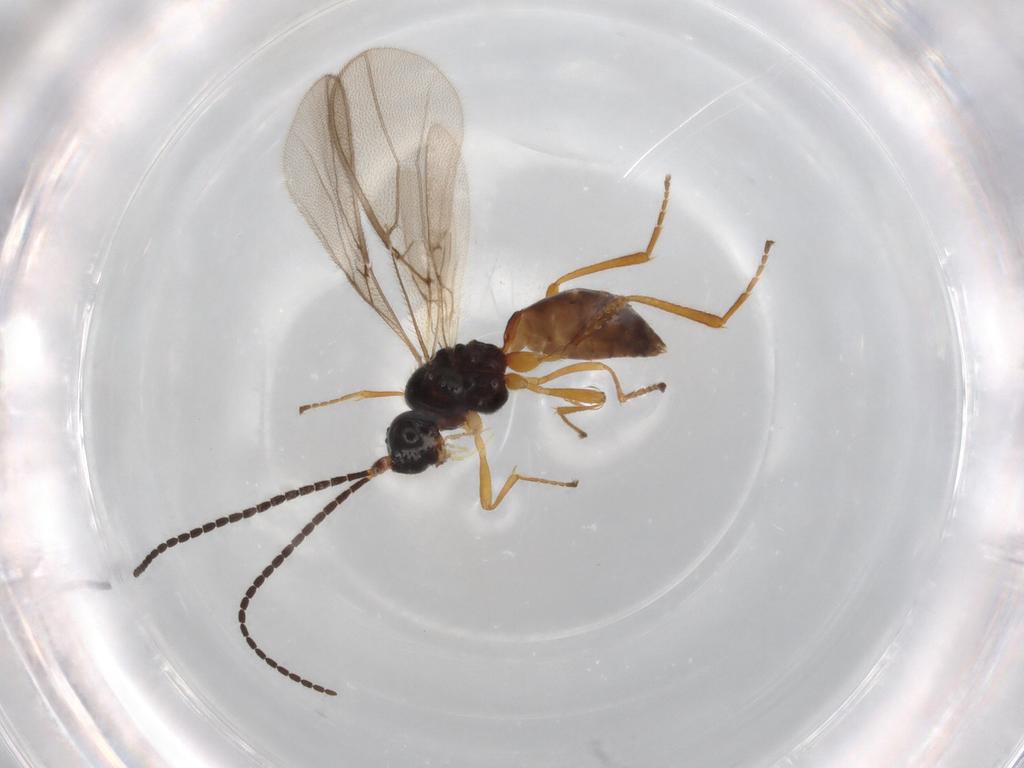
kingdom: Animalia
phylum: Arthropoda
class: Insecta
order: Hymenoptera
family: Braconidae
